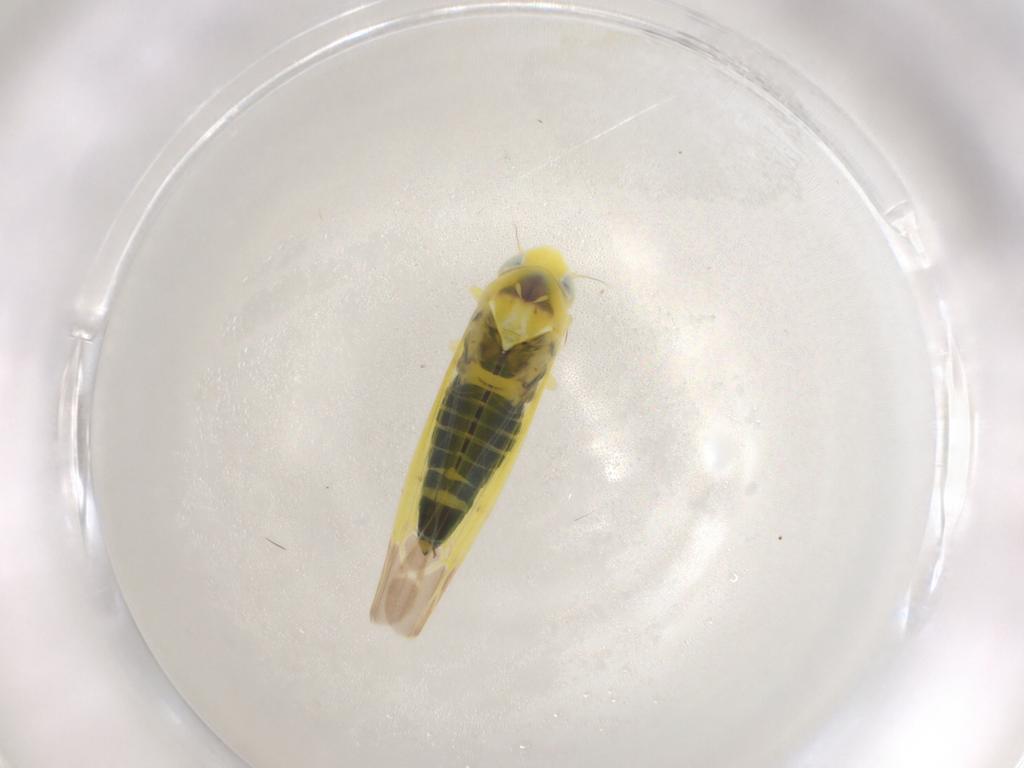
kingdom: Animalia
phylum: Arthropoda
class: Insecta
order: Hemiptera
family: Cicadellidae
